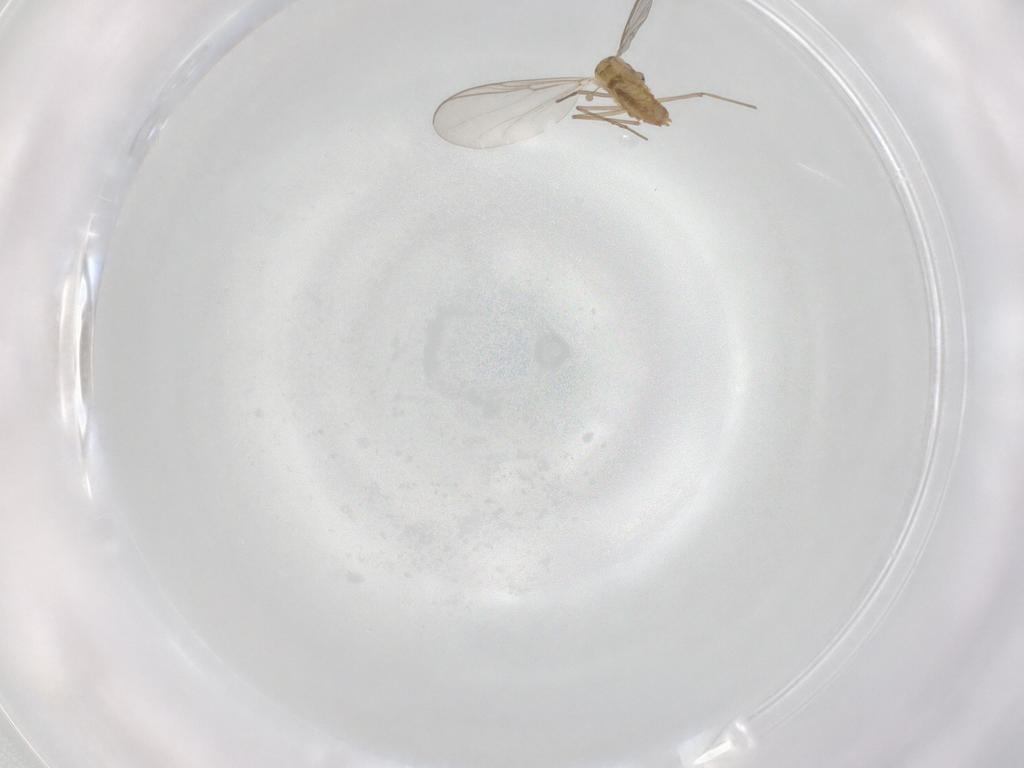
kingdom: Animalia
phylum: Arthropoda
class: Insecta
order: Diptera
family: Chironomidae
